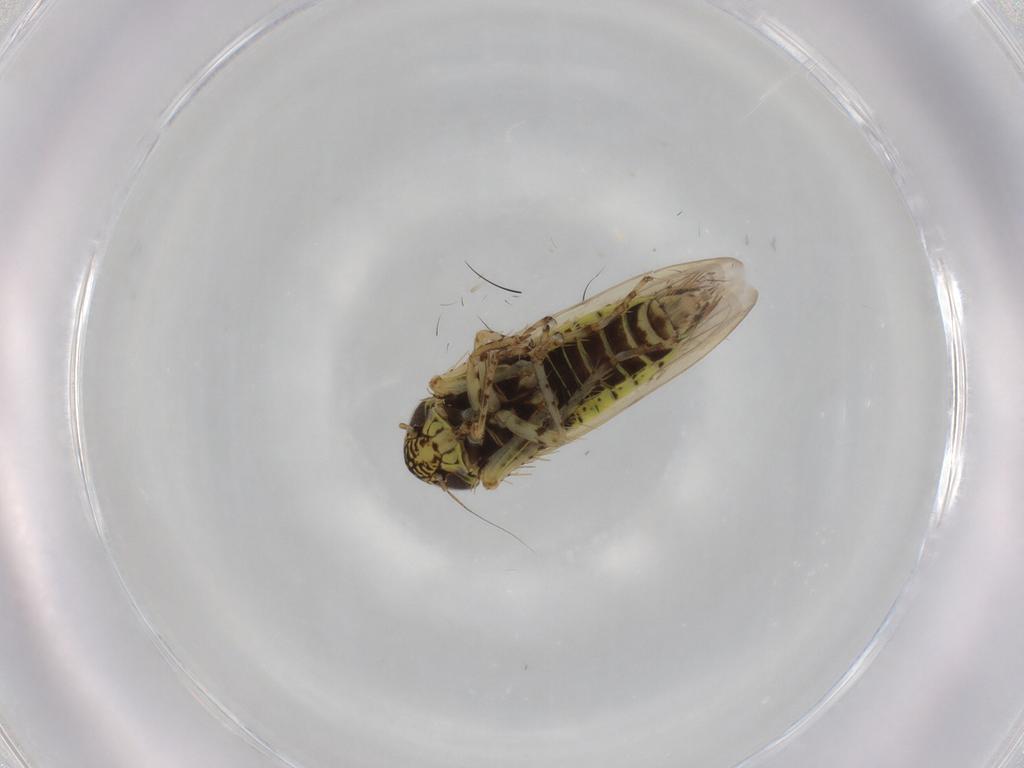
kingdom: Animalia
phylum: Arthropoda
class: Insecta
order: Hemiptera
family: Cicadellidae
